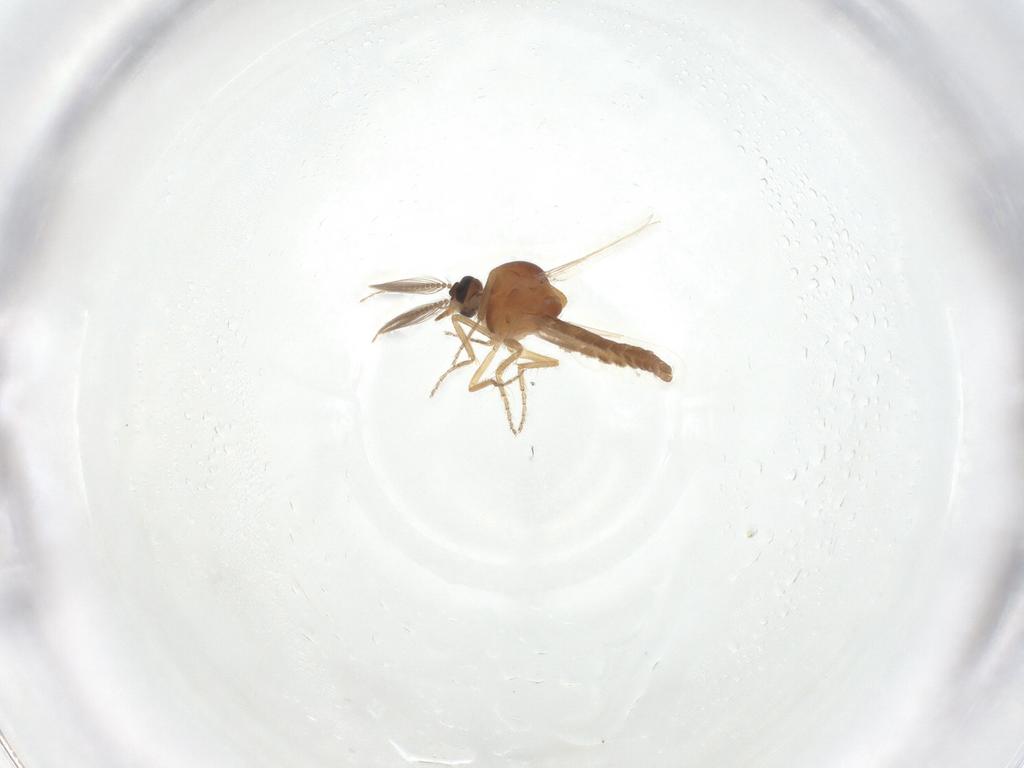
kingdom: Animalia
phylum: Arthropoda
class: Insecta
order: Diptera
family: Ceratopogonidae
